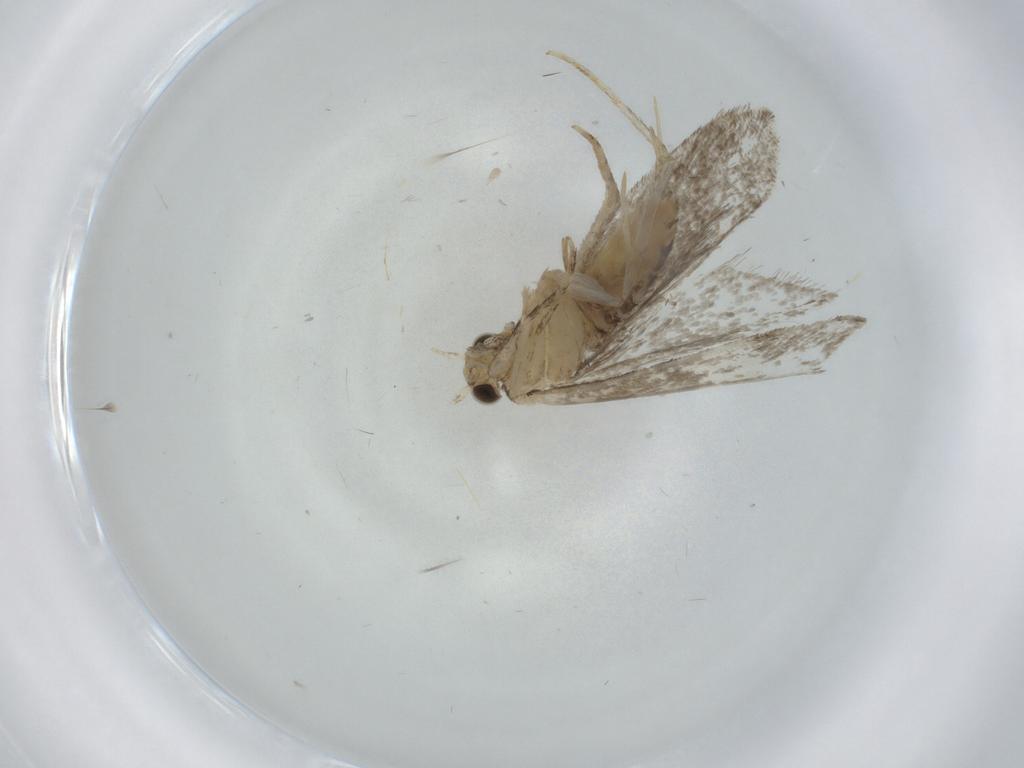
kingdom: Animalia
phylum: Arthropoda
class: Insecta
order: Lepidoptera
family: Tineidae
